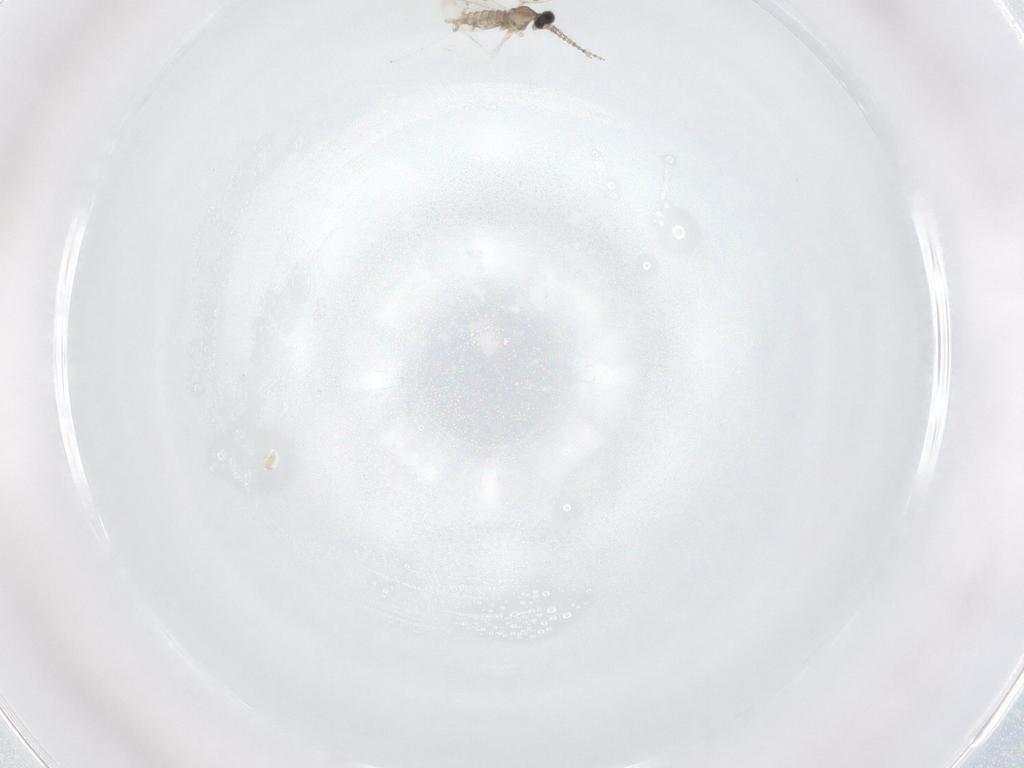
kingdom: Animalia
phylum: Arthropoda
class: Insecta
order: Diptera
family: Cecidomyiidae
